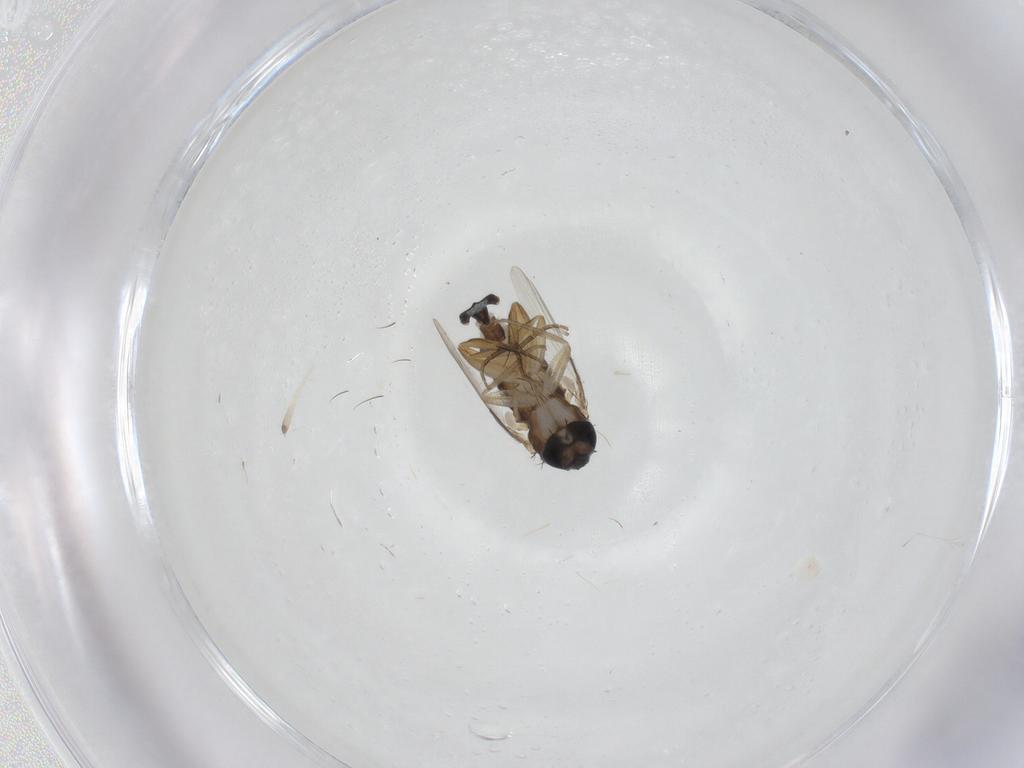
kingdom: Animalia
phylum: Arthropoda
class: Insecta
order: Diptera
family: Phoridae
